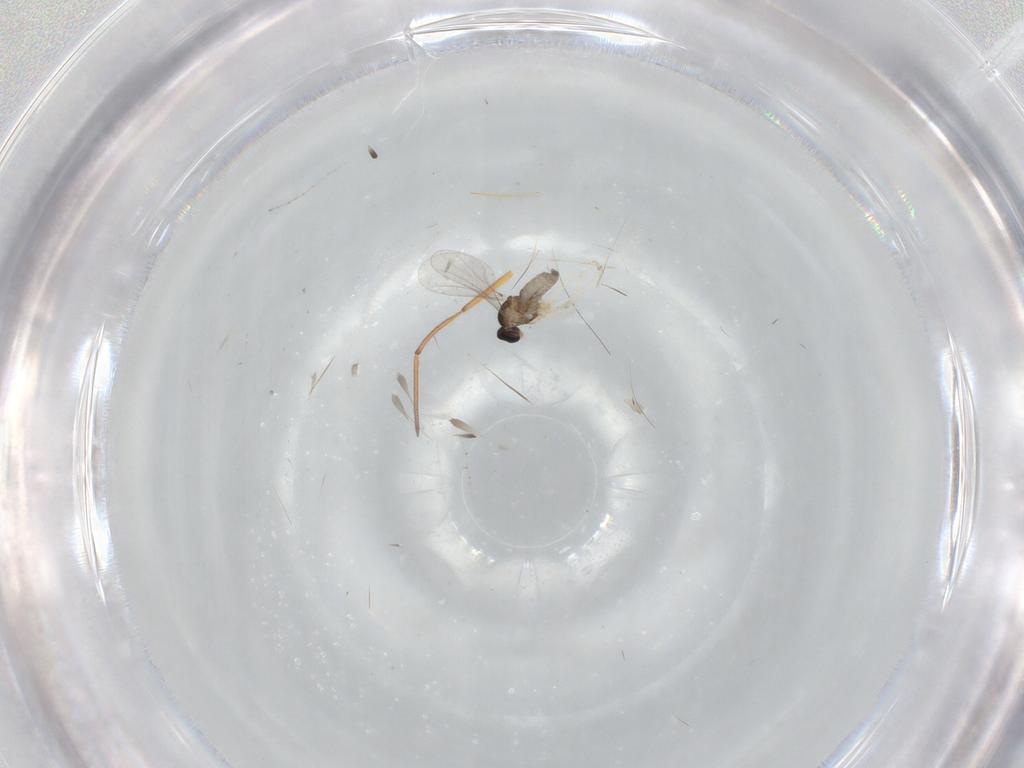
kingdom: Animalia
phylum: Arthropoda
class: Insecta
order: Diptera
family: Cecidomyiidae
